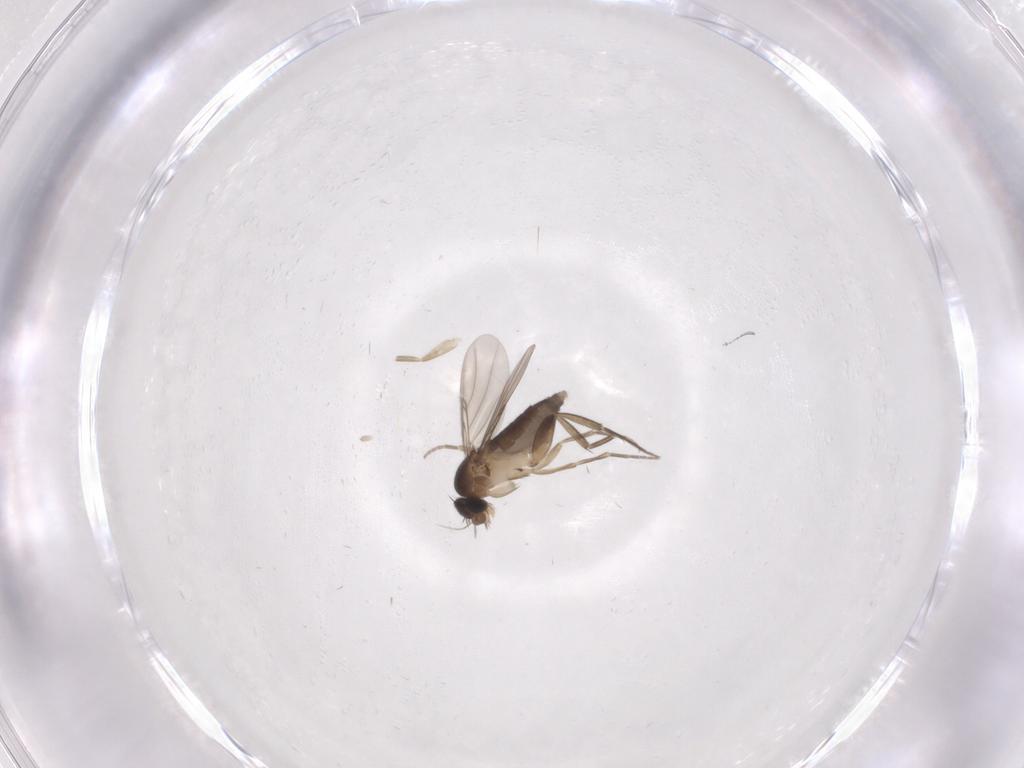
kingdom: Animalia
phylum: Arthropoda
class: Insecta
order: Diptera
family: Phoridae
